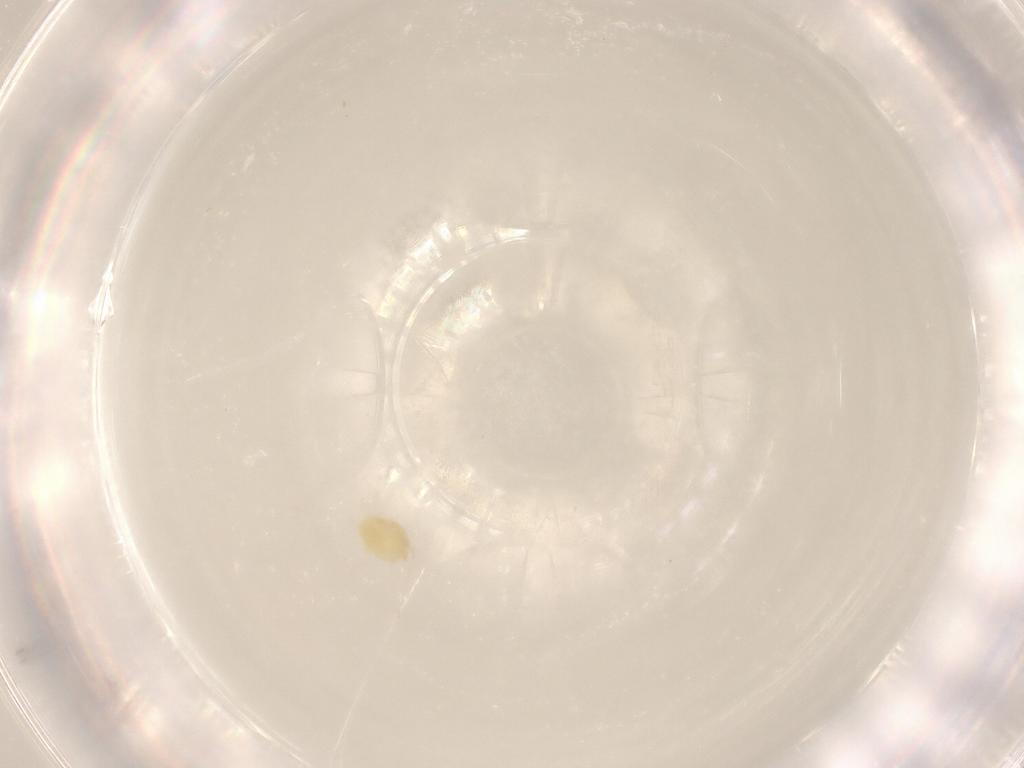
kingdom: Animalia
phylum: Arthropoda
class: Arachnida
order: Trombidiformes
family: Tetranychidae
